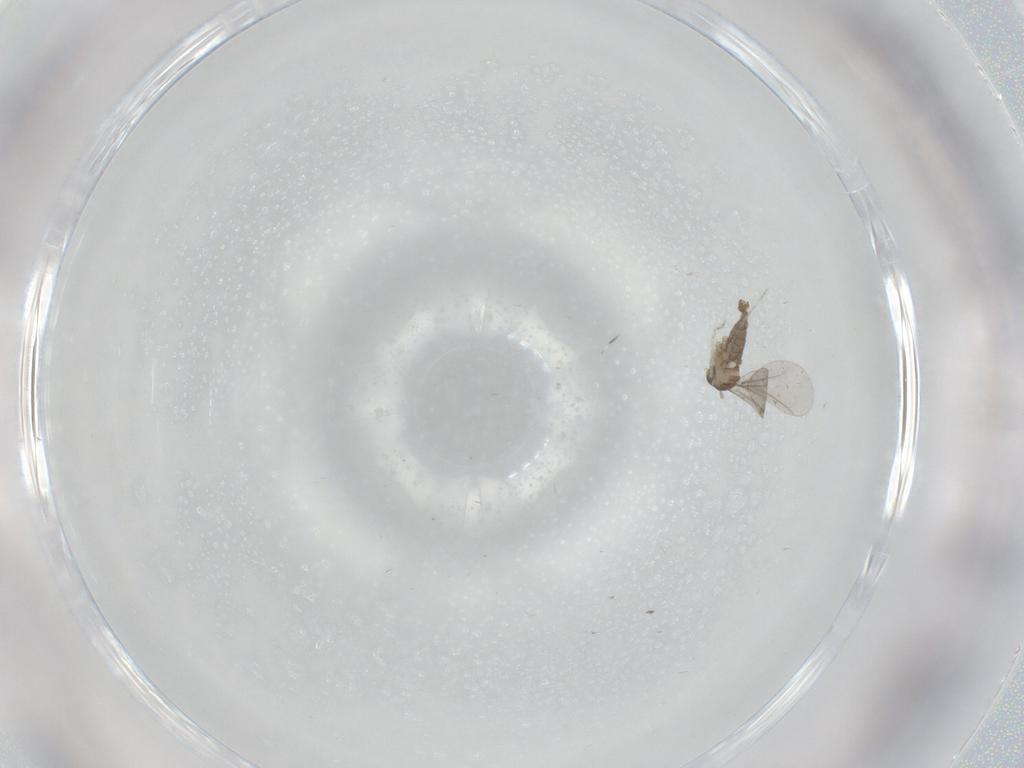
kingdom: Animalia
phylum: Arthropoda
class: Insecta
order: Diptera
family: Cecidomyiidae
